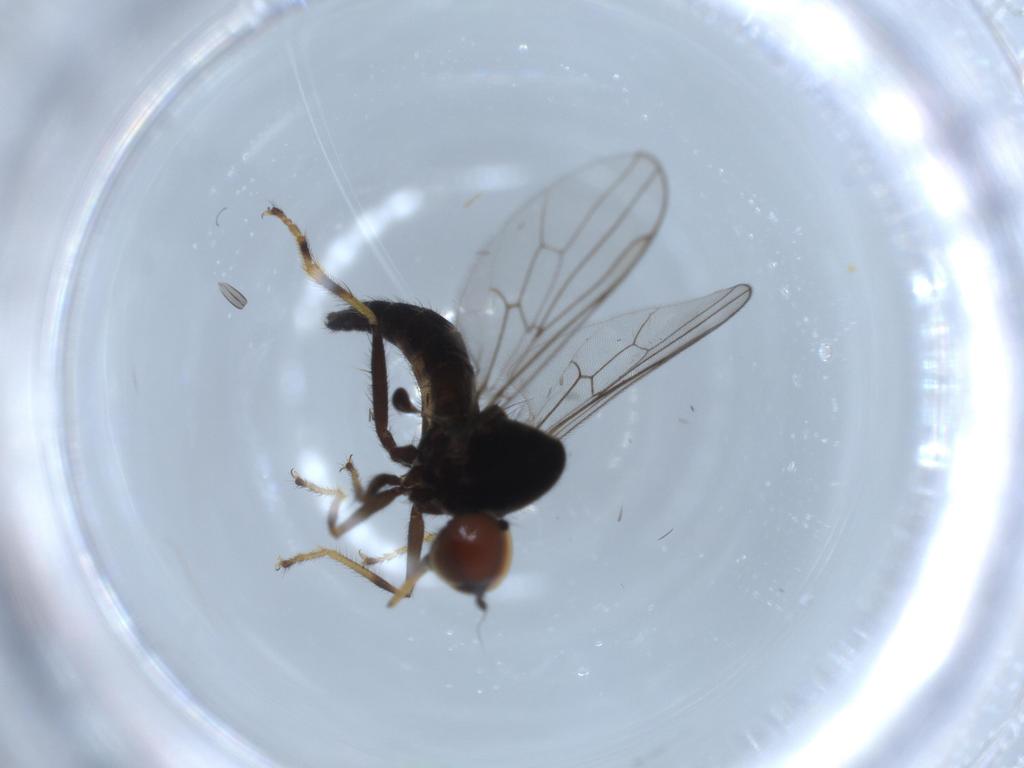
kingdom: Animalia
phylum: Arthropoda
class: Insecta
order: Diptera
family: Hybotidae
